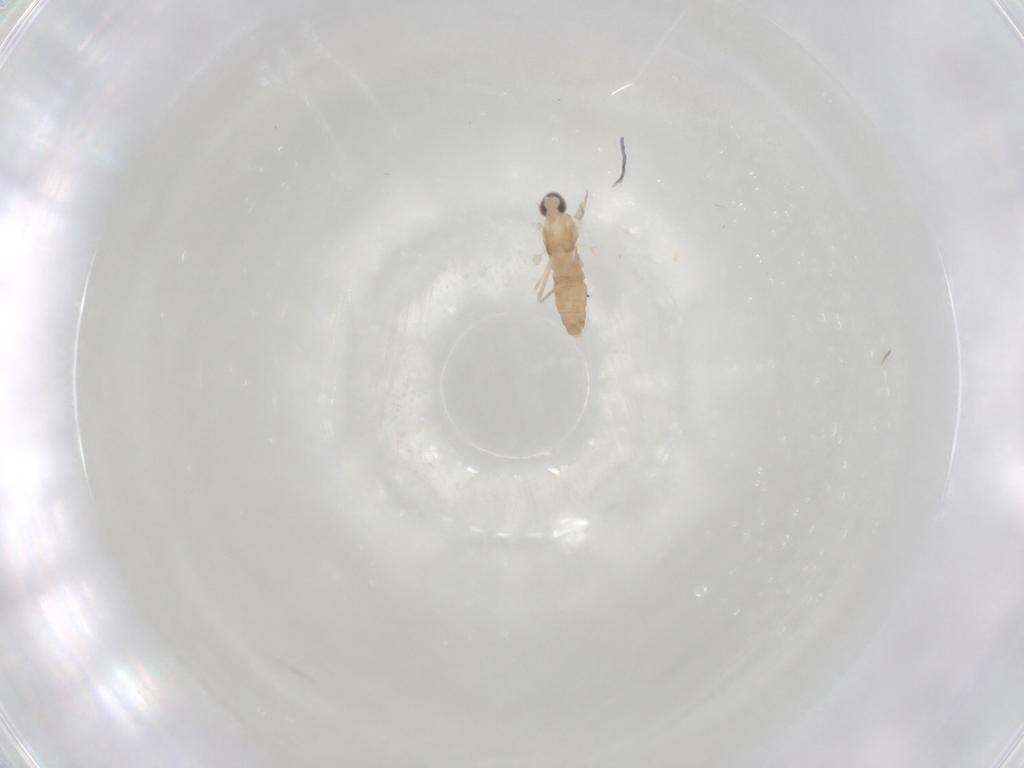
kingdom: Animalia
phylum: Arthropoda
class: Insecta
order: Diptera
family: Cecidomyiidae
